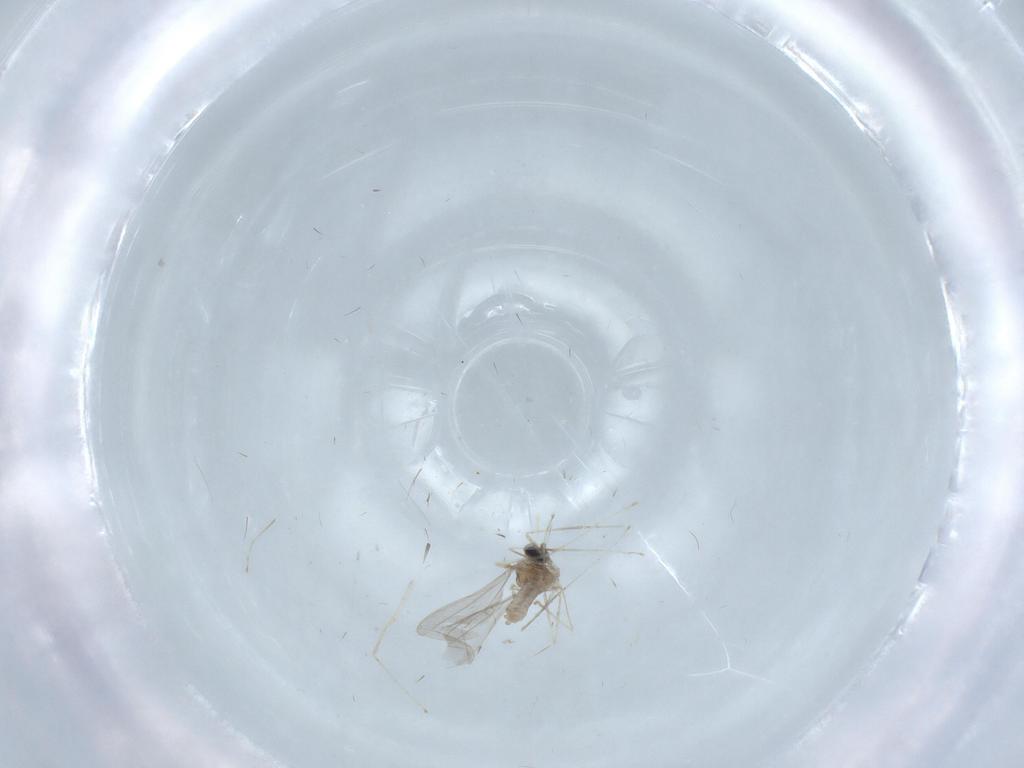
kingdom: Animalia
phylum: Arthropoda
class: Insecta
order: Diptera
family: Cecidomyiidae
